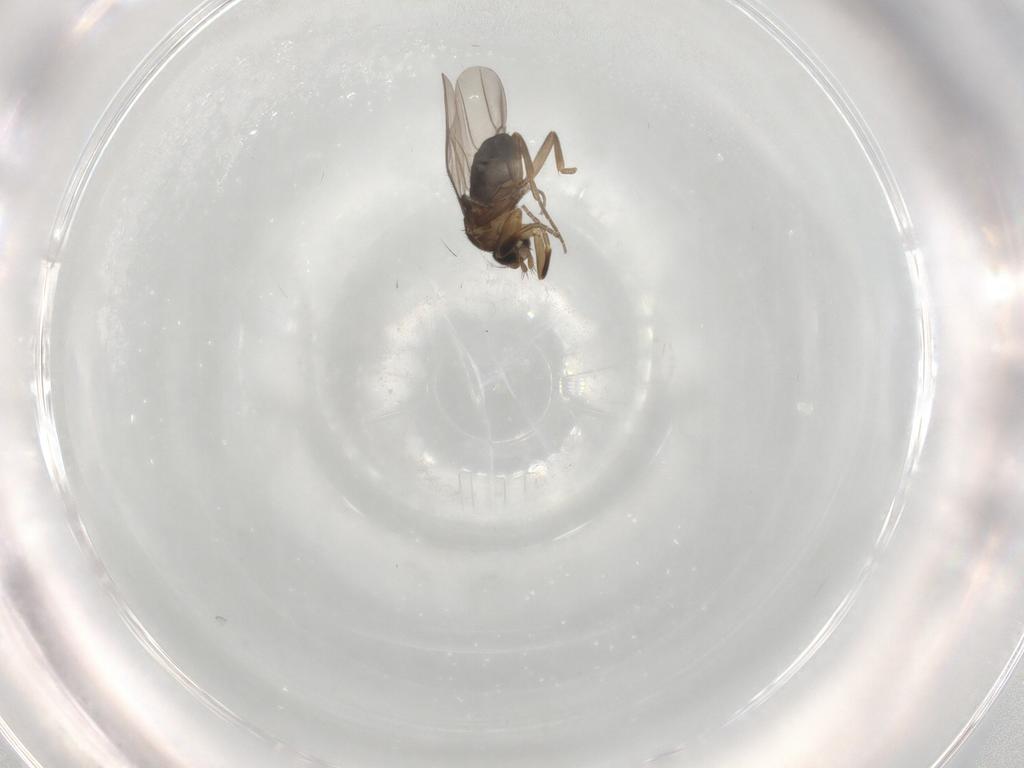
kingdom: Animalia
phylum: Arthropoda
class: Insecta
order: Diptera
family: Phoridae
